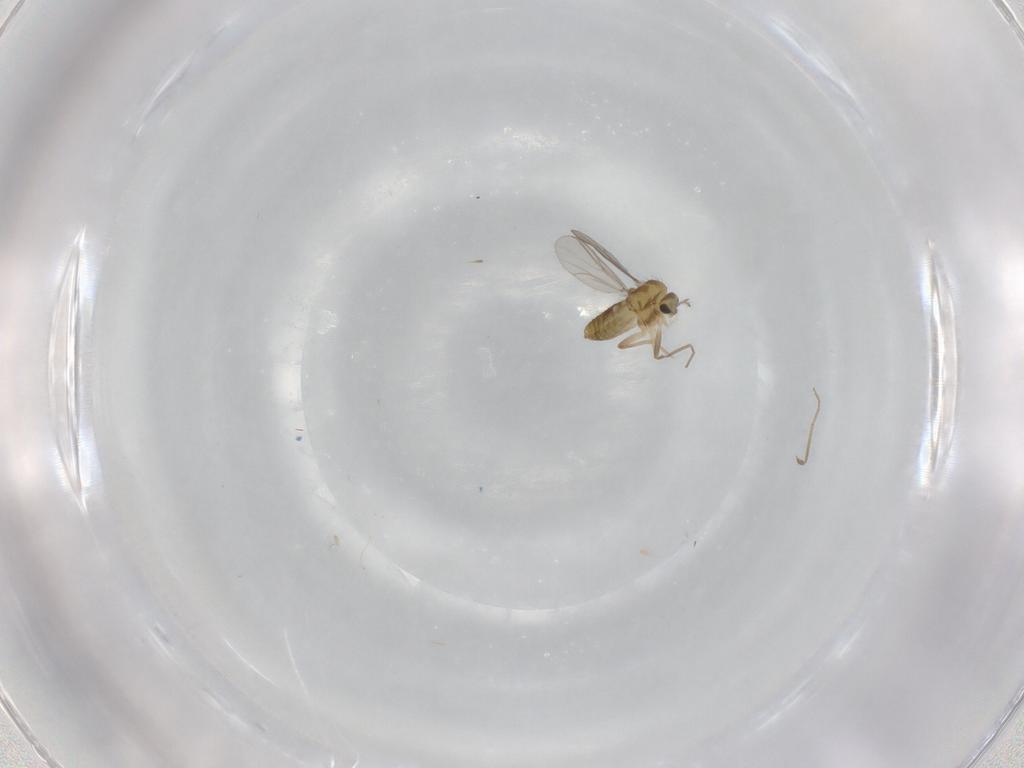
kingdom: Animalia
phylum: Arthropoda
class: Insecta
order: Diptera
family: Chironomidae
